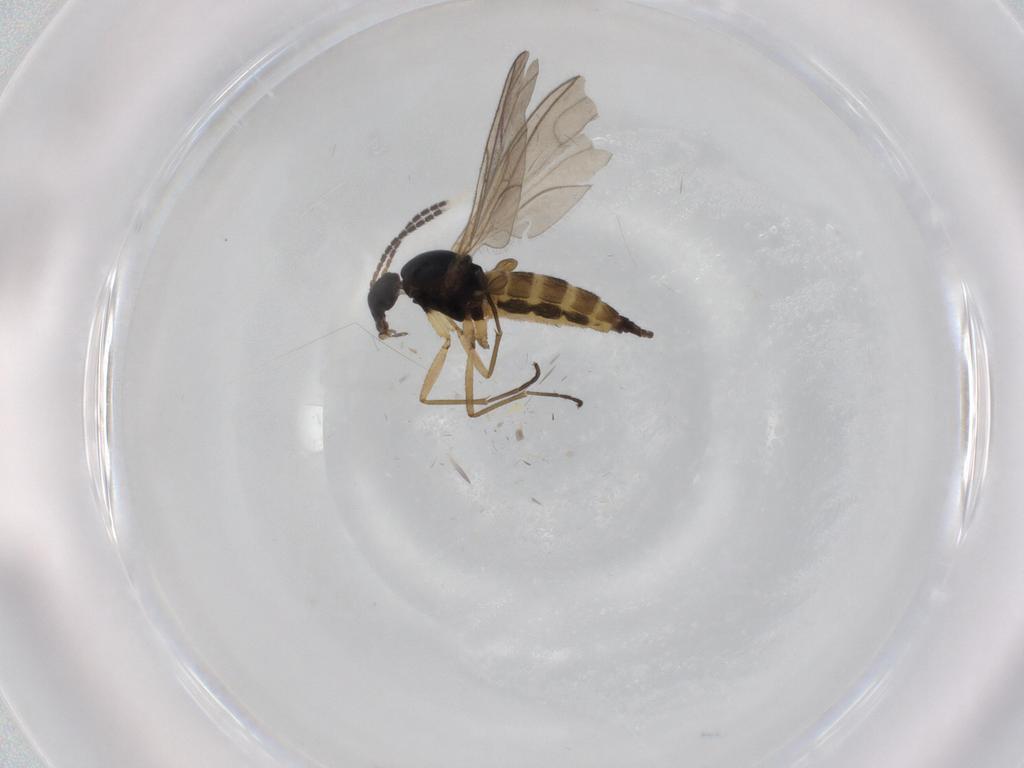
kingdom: Animalia
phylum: Arthropoda
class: Insecta
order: Diptera
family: Sciaridae
